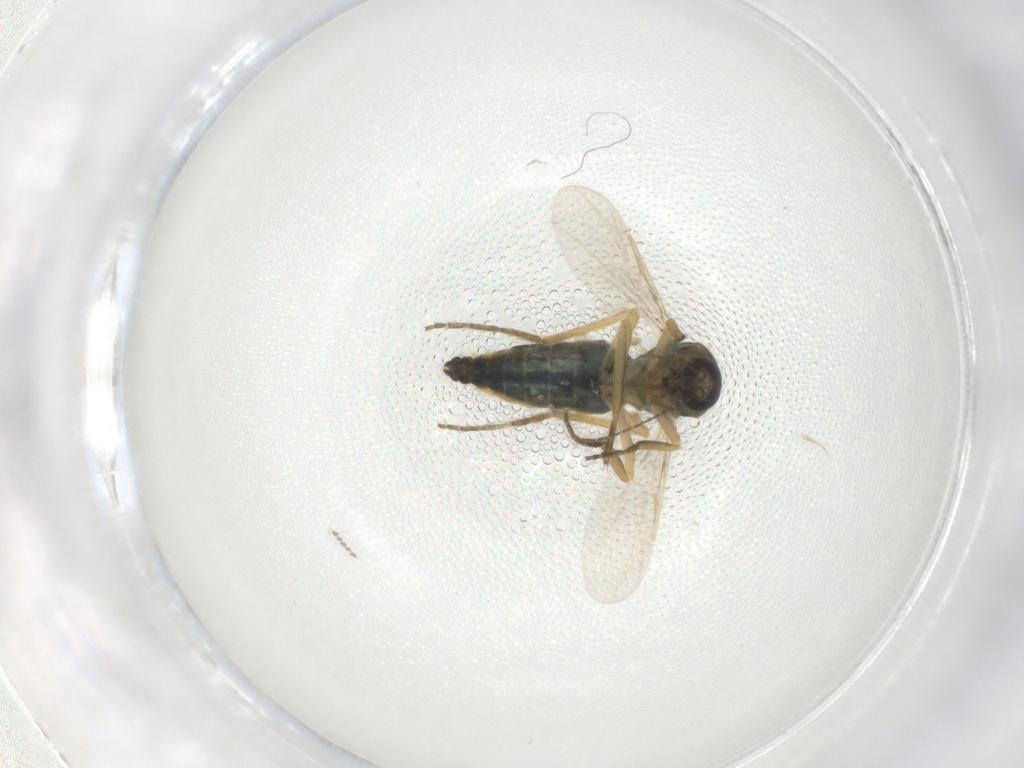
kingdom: Animalia
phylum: Arthropoda
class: Insecta
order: Diptera
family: Ceratopogonidae
